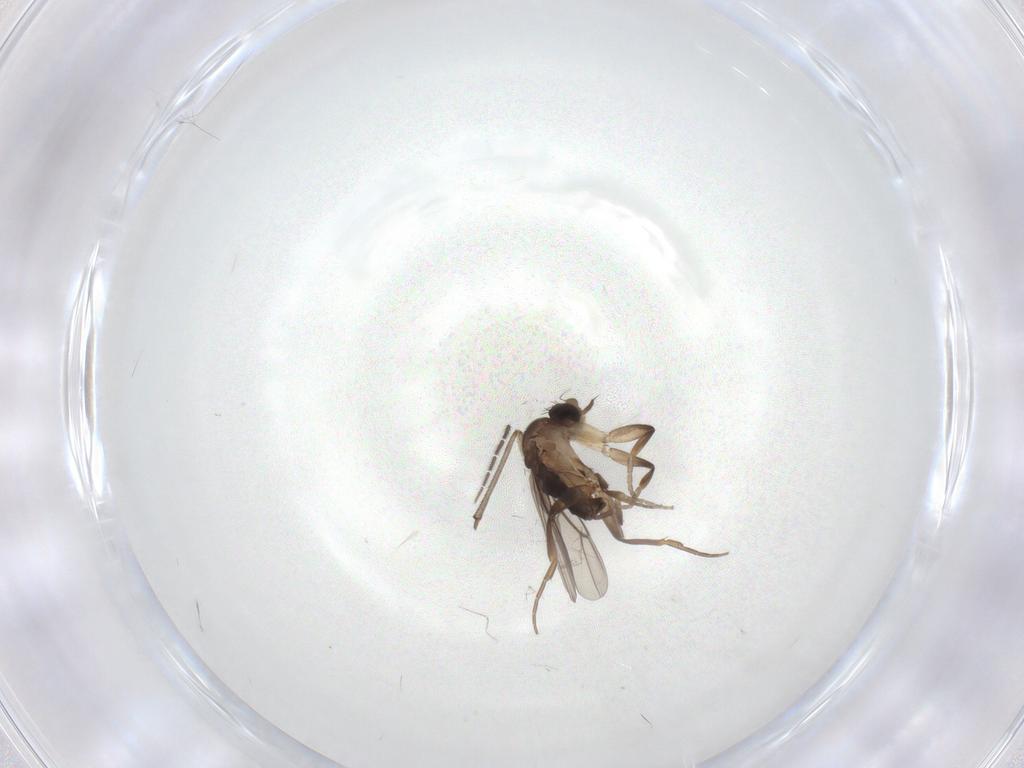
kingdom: Animalia
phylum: Arthropoda
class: Insecta
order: Diptera
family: Phoridae
